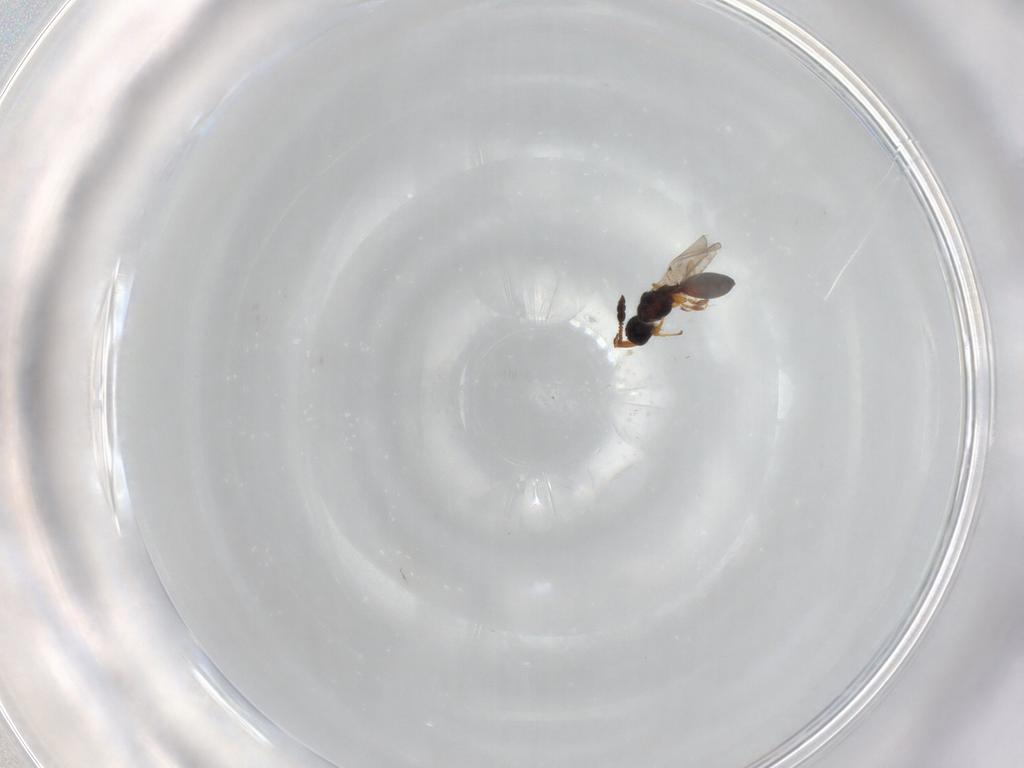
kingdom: Animalia
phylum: Arthropoda
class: Insecta
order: Hymenoptera
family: Diapriidae
